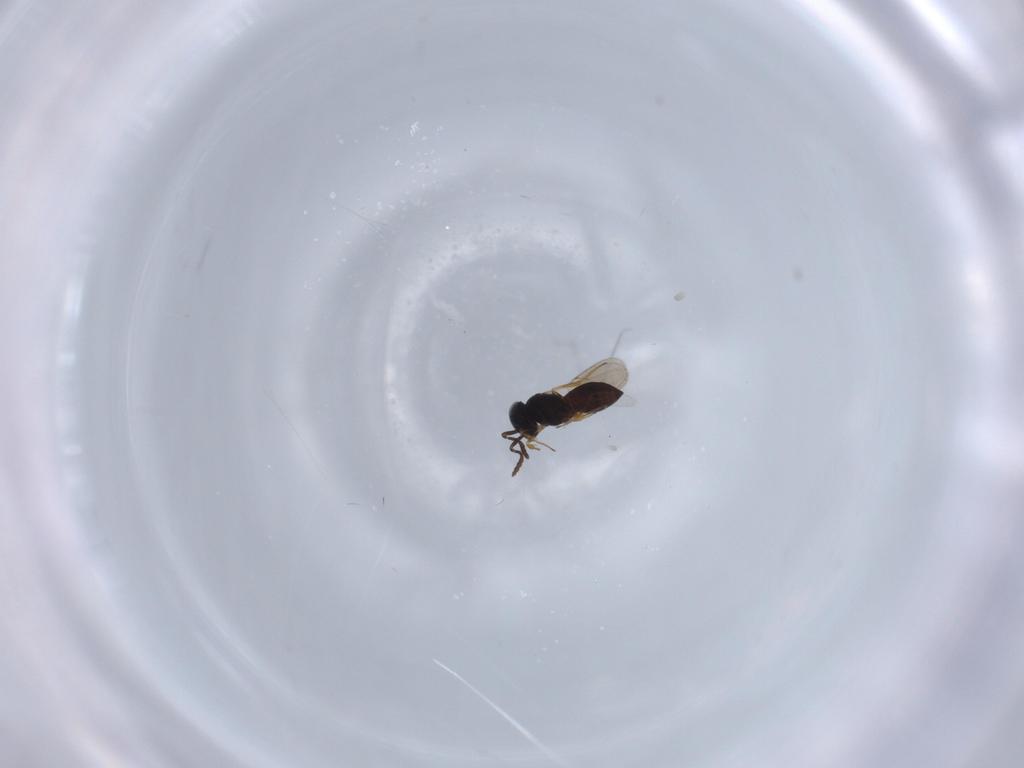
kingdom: Animalia
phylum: Arthropoda
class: Insecta
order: Hymenoptera
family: Scelionidae
